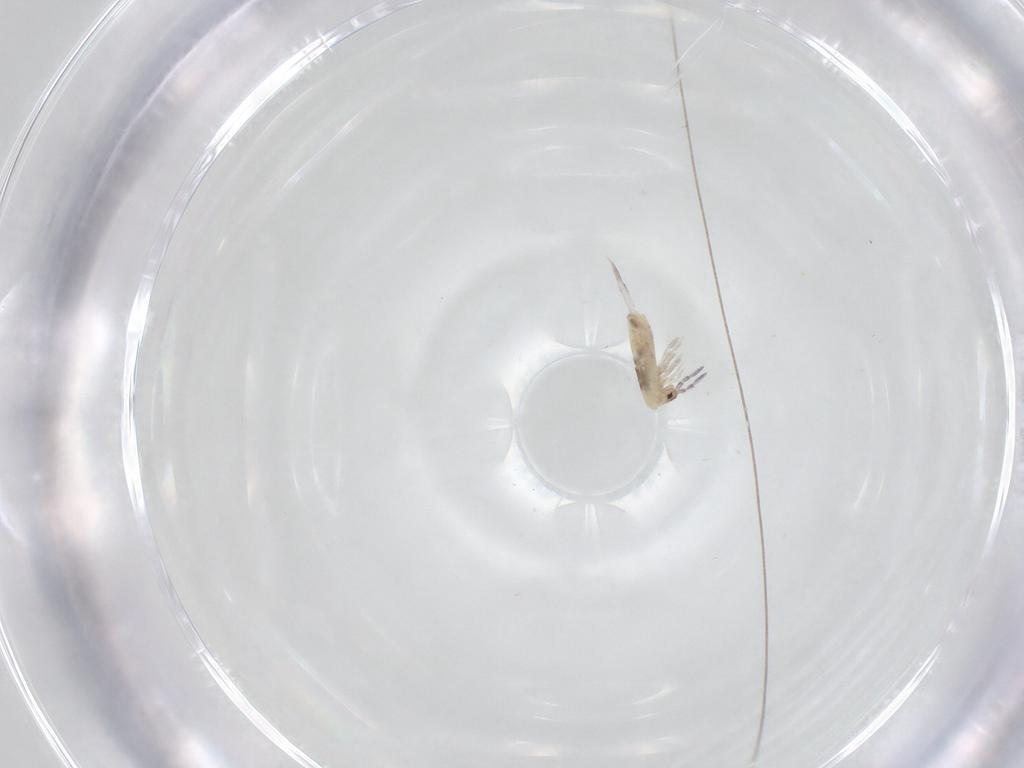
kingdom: Animalia
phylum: Arthropoda
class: Collembola
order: Entomobryomorpha
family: Entomobryidae
